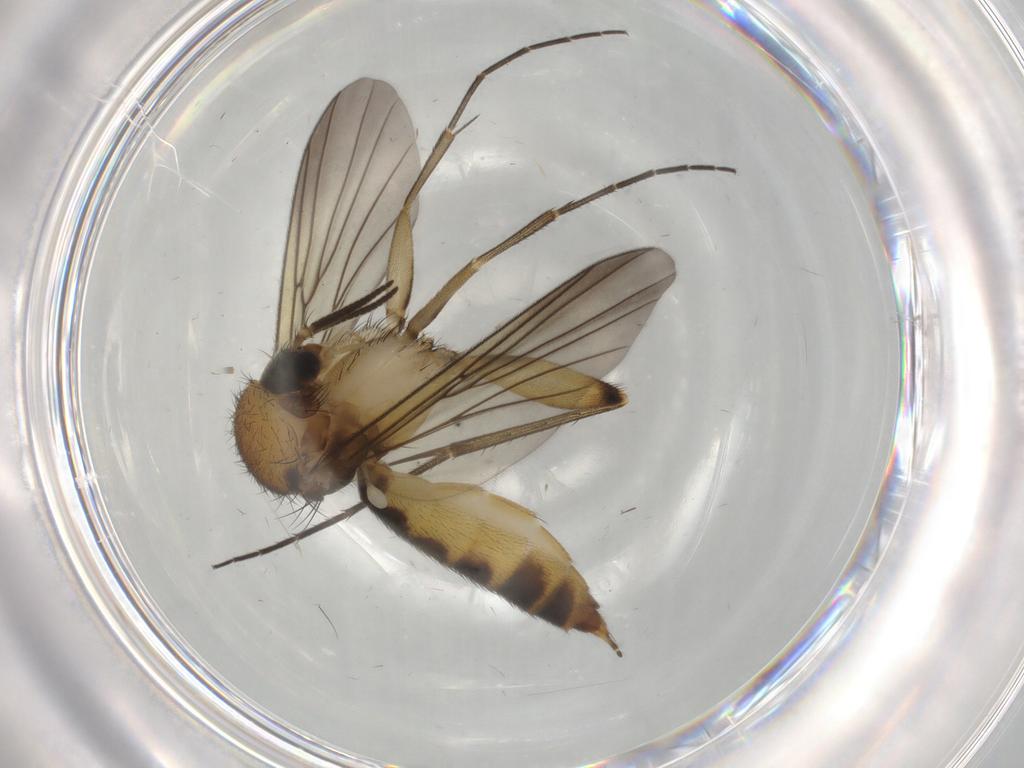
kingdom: Animalia
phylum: Arthropoda
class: Insecta
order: Diptera
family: Mycetophilidae
